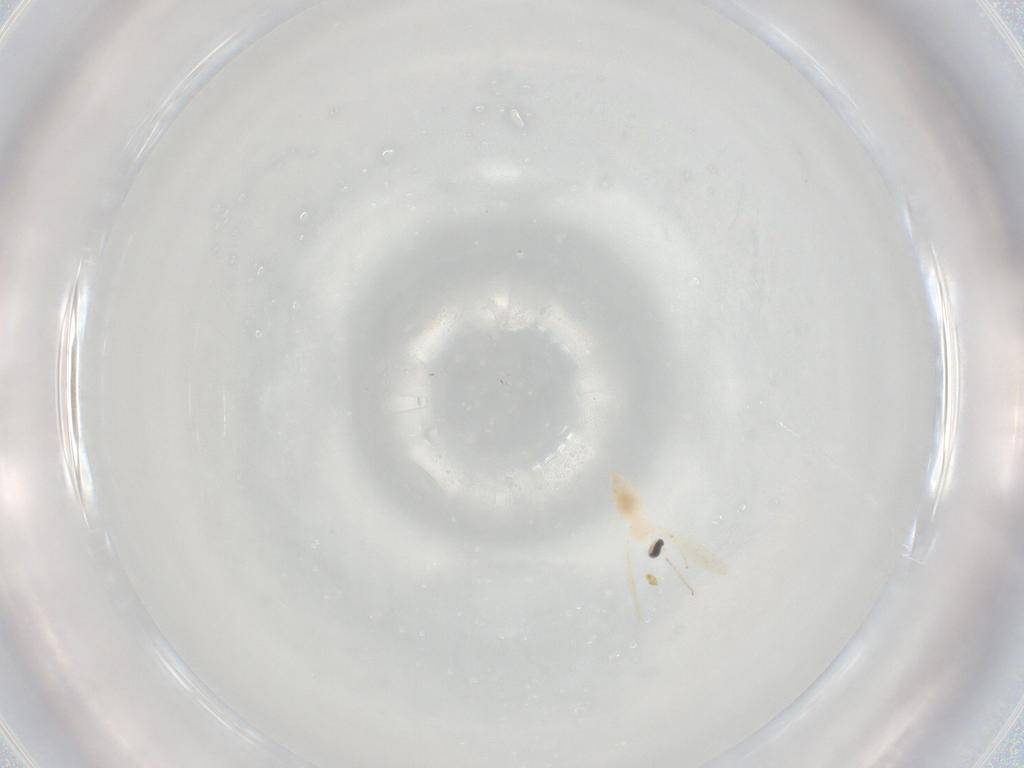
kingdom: Animalia
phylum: Arthropoda
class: Insecta
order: Diptera
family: Cecidomyiidae
